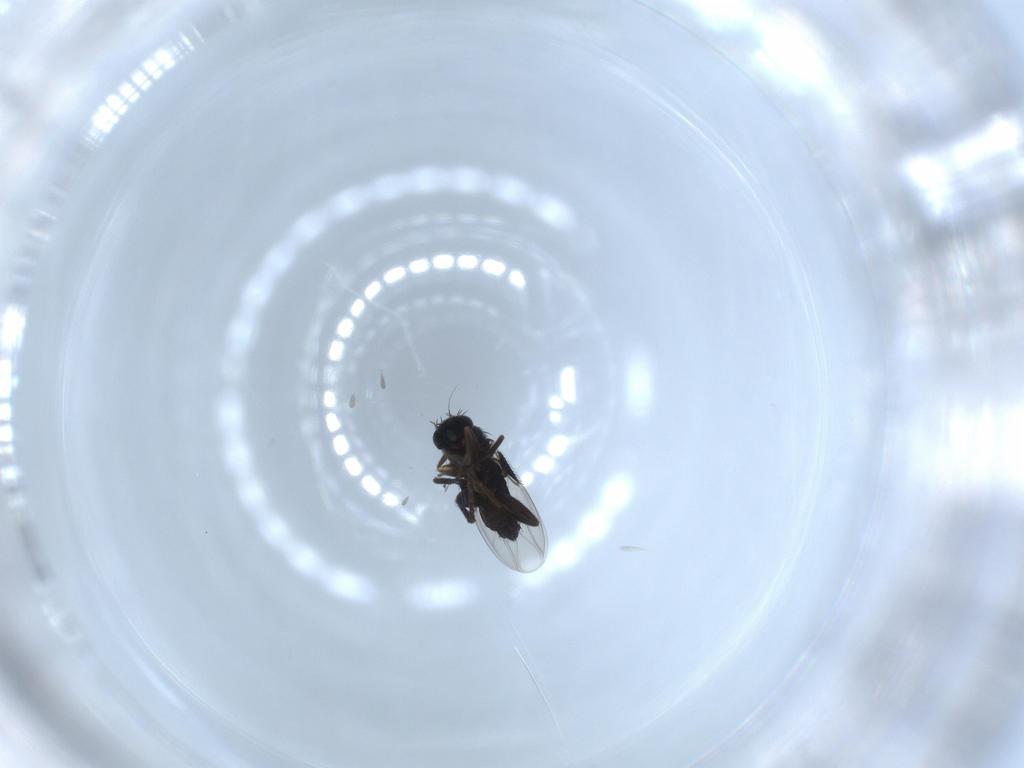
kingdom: Animalia
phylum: Arthropoda
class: Insecta
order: Diptera
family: Phoridae
